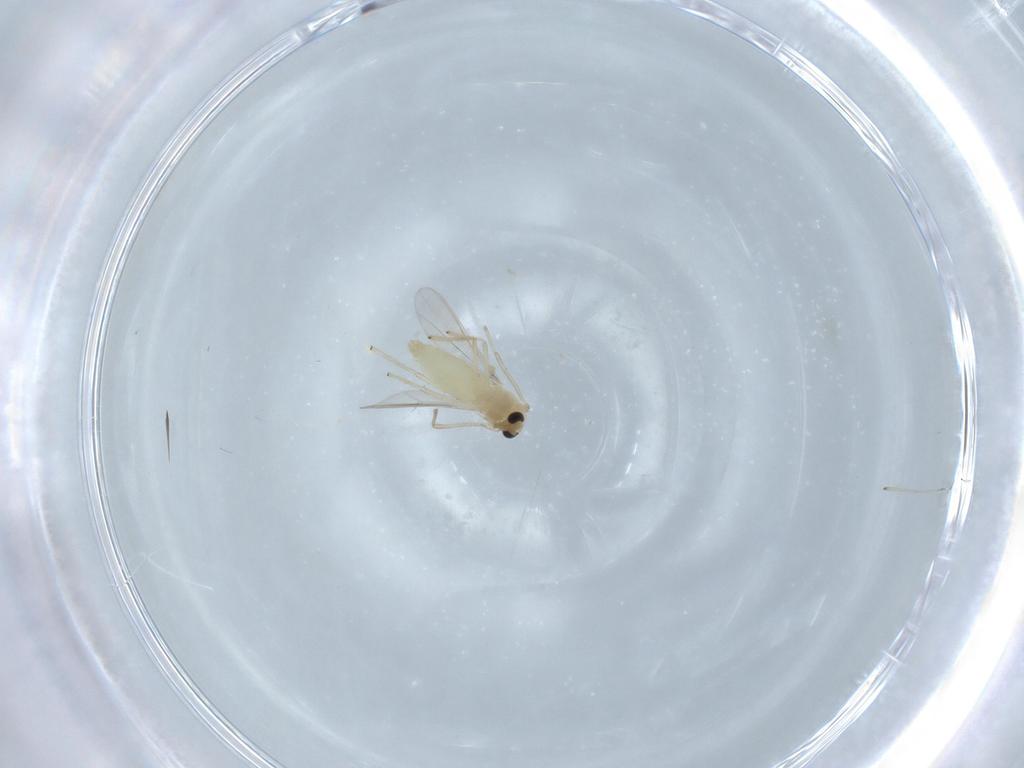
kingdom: Animalia
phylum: Arthropoda
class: Insecta
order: Diptera
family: Chironomidae
